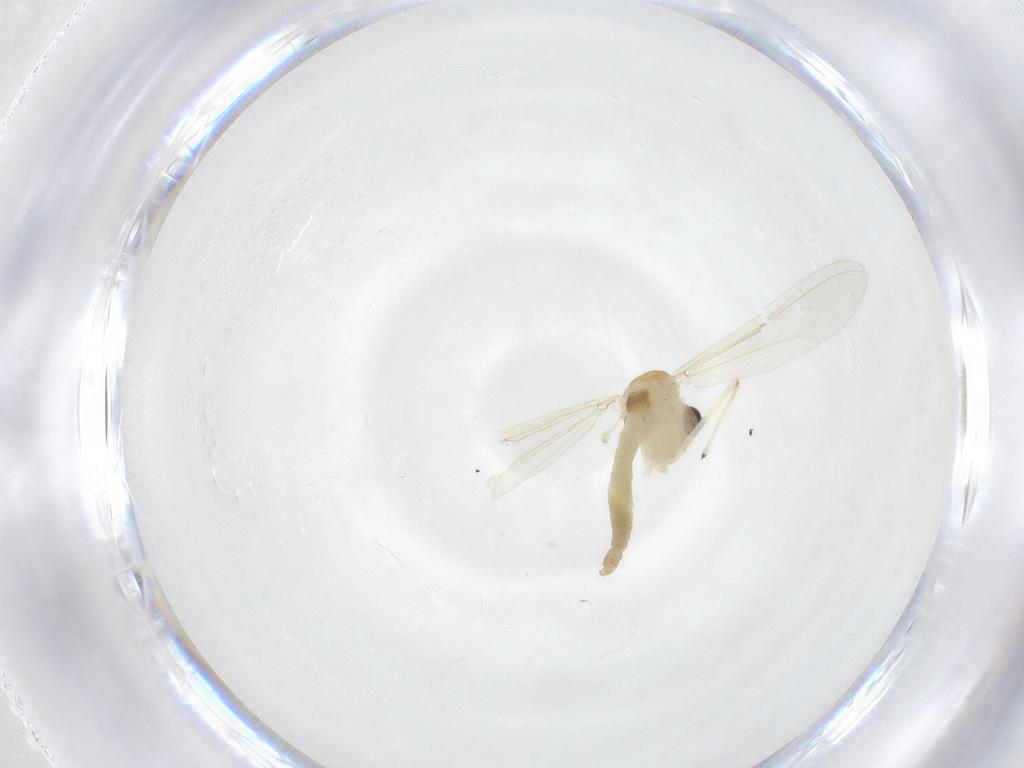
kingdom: Animalia
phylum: Arthropoda
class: Insecta
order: Diptera
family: Chironomidae
